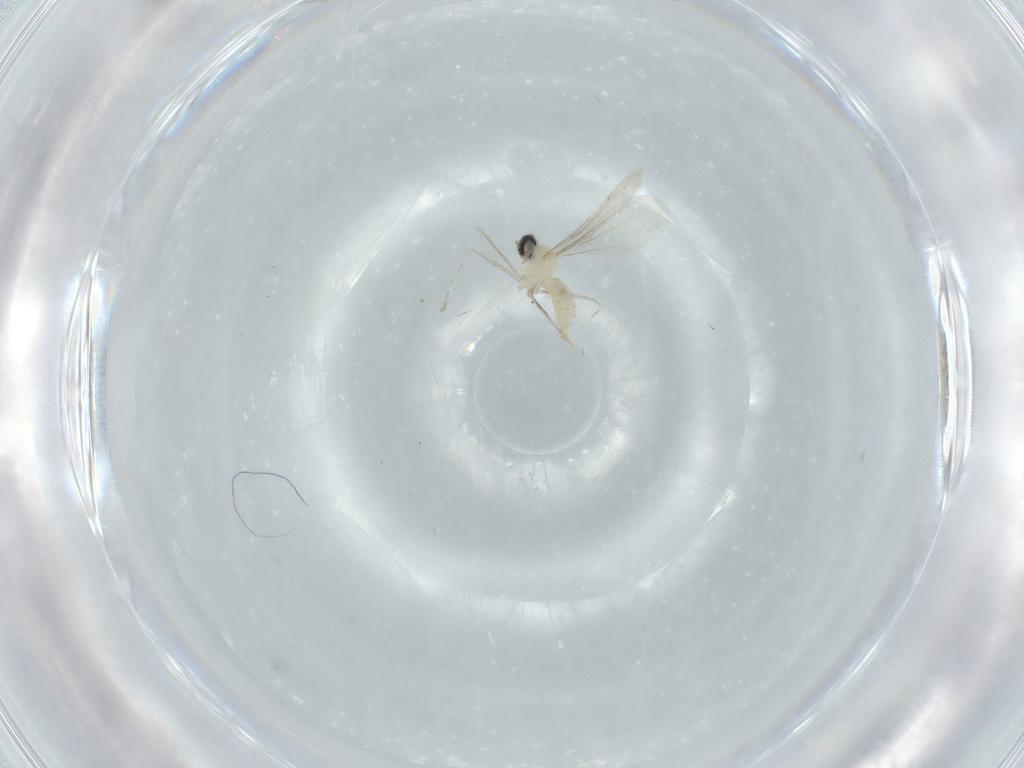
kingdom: Animalia
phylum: Arthropoda
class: Insecta
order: Diptera
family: Cecidomyiidae
